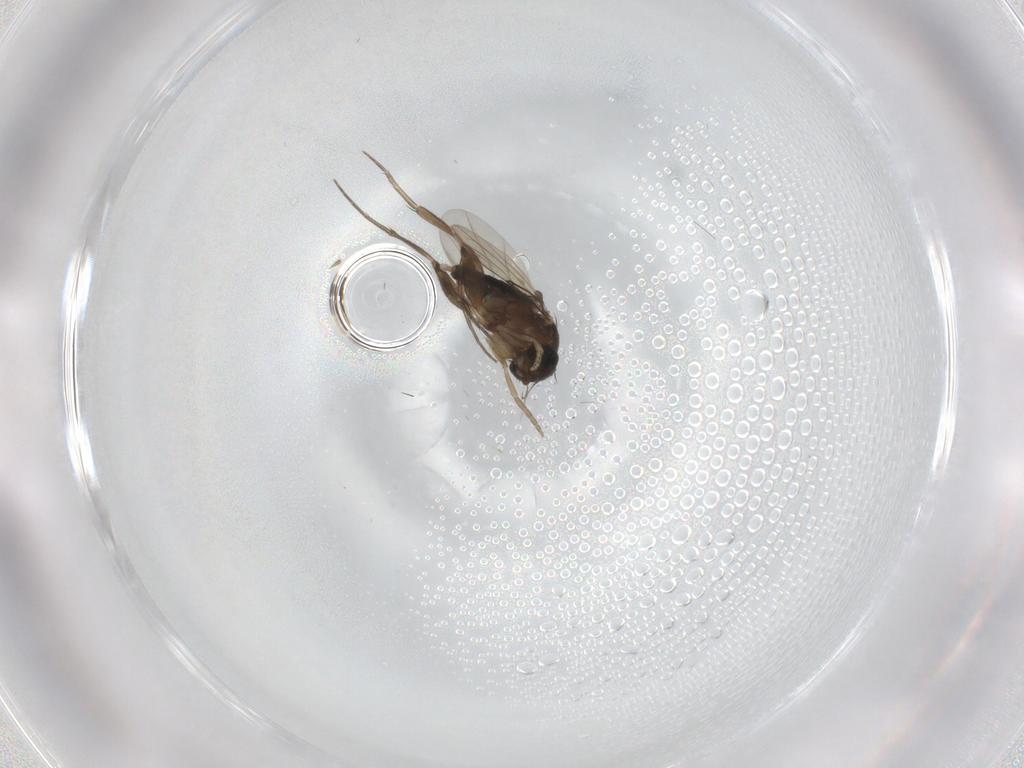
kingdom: Animalia
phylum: Arthropoda
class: Insecta
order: Diptera
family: Phoridae
